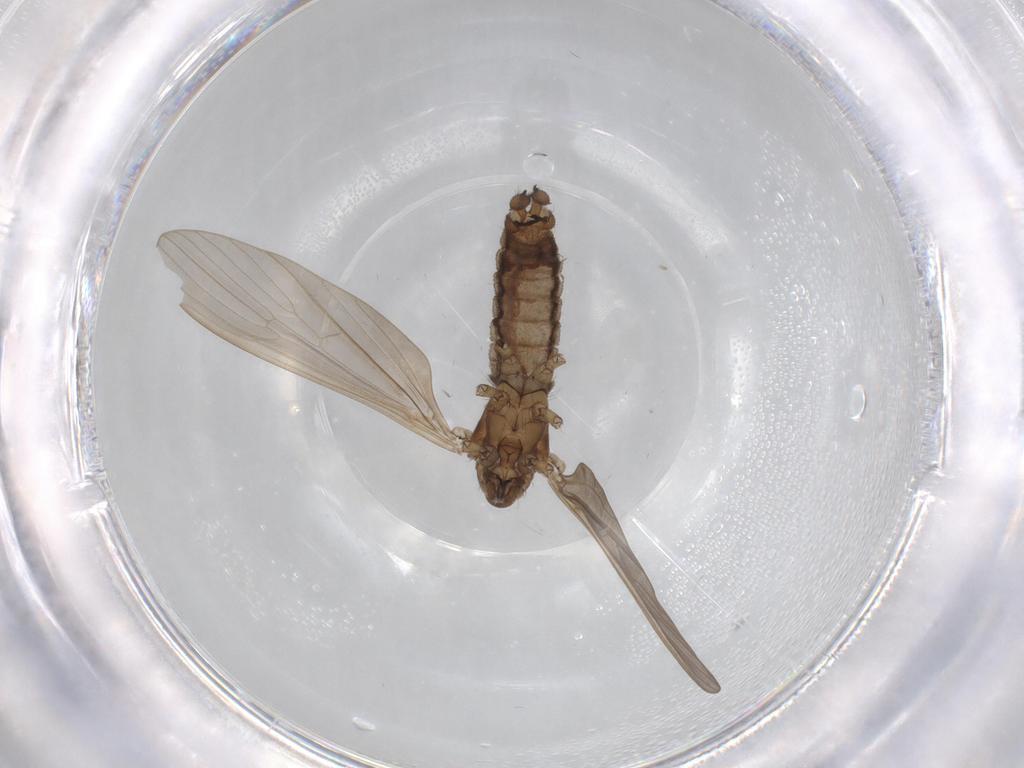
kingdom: Animalia
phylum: Arthropoda
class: Insecta
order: Diptera
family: Limoniidae
